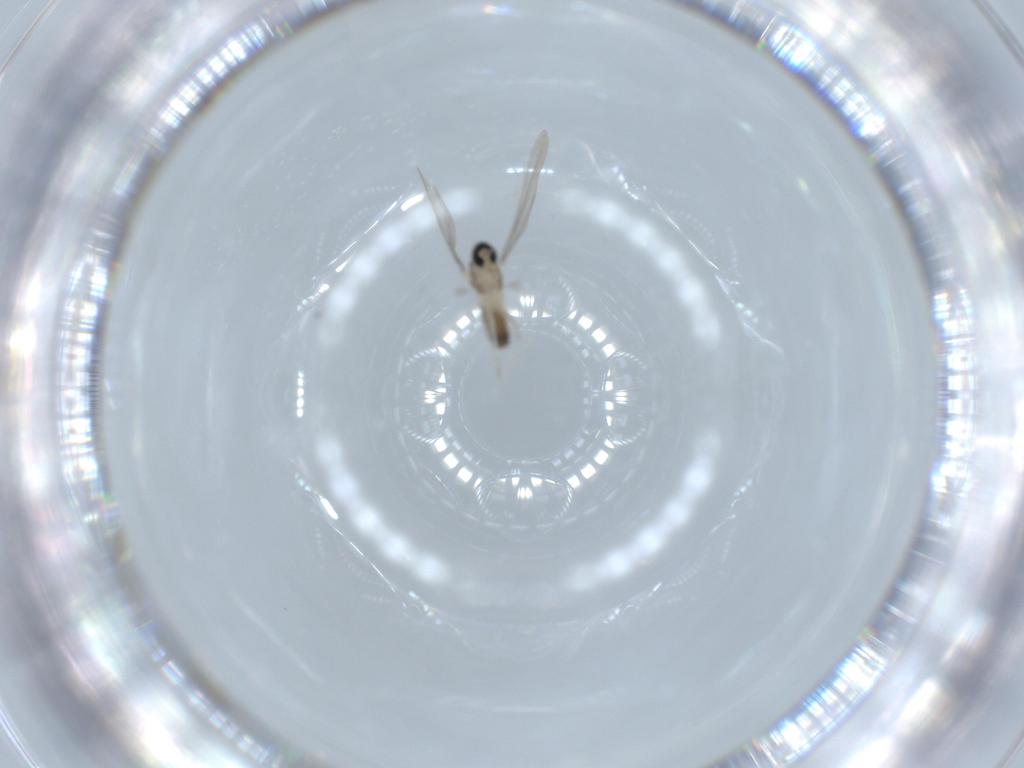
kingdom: Animalia
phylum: Arthropoda
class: Insecta
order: Diptera
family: Cecidomyiidae
